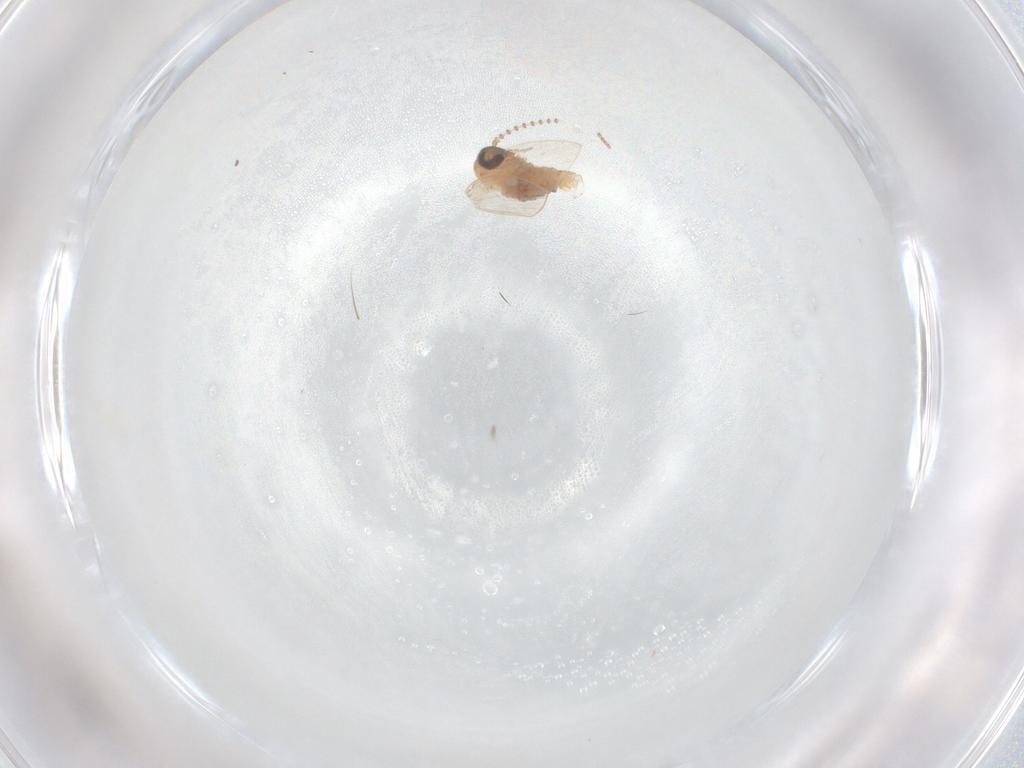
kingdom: Animalia
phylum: Arthropoda
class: Insecta
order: Diptera
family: Psychodidae
